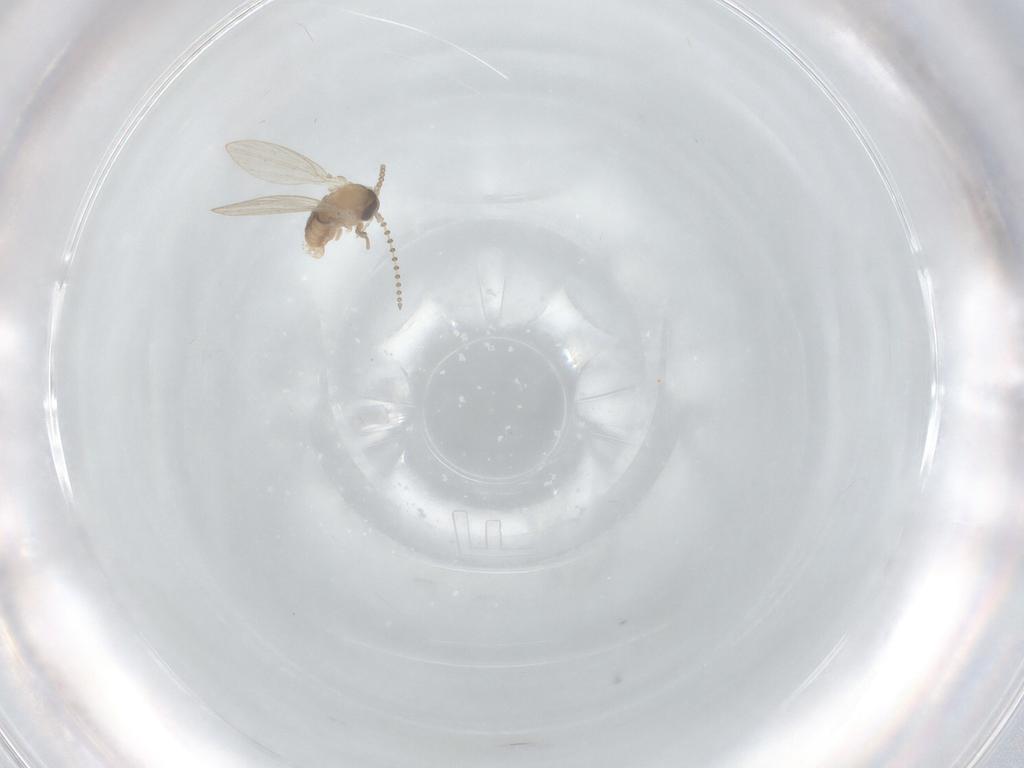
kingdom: Animalia
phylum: Arthropoda
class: Insecta
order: Diptera
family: Psychodidae
